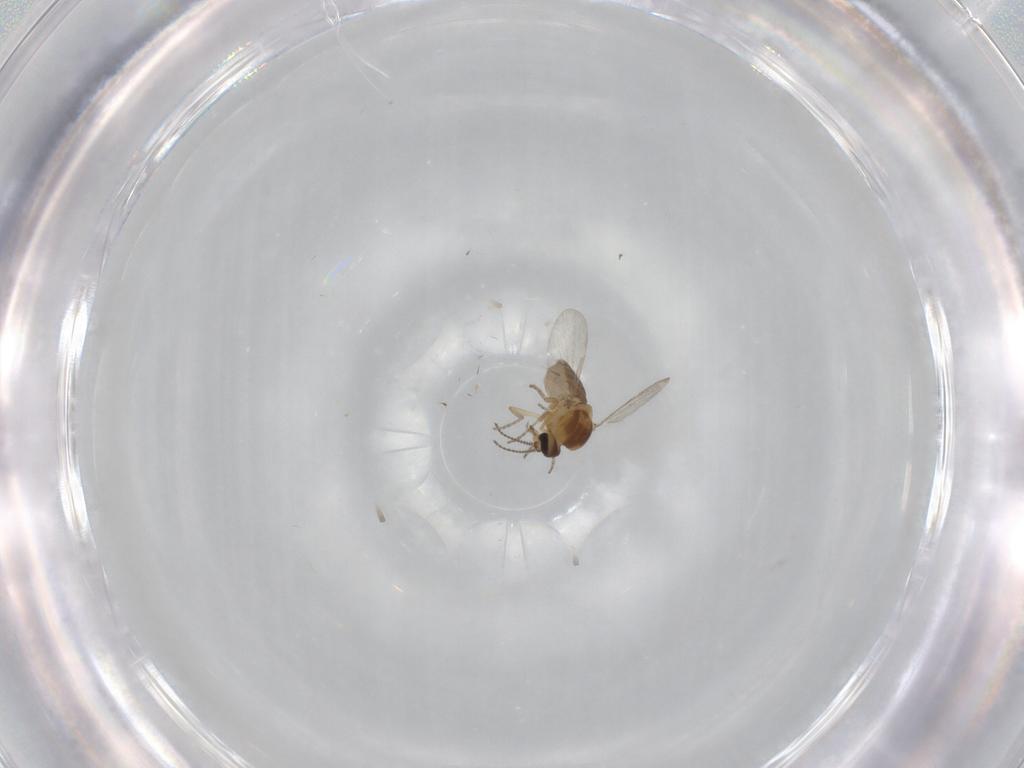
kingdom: Animalia
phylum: Arthropoda
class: Insecta
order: Diptera
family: Ceratopogonidae
